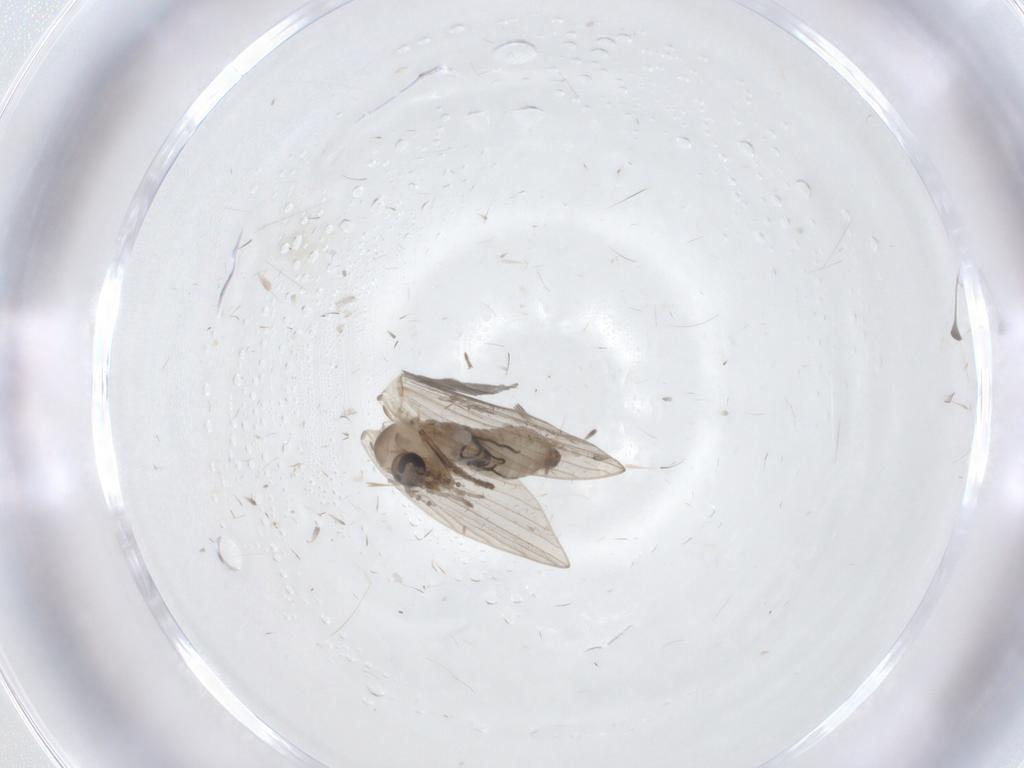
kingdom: Animalia
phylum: Arthropoda
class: Insecta
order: Diptera
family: Psychodidae
